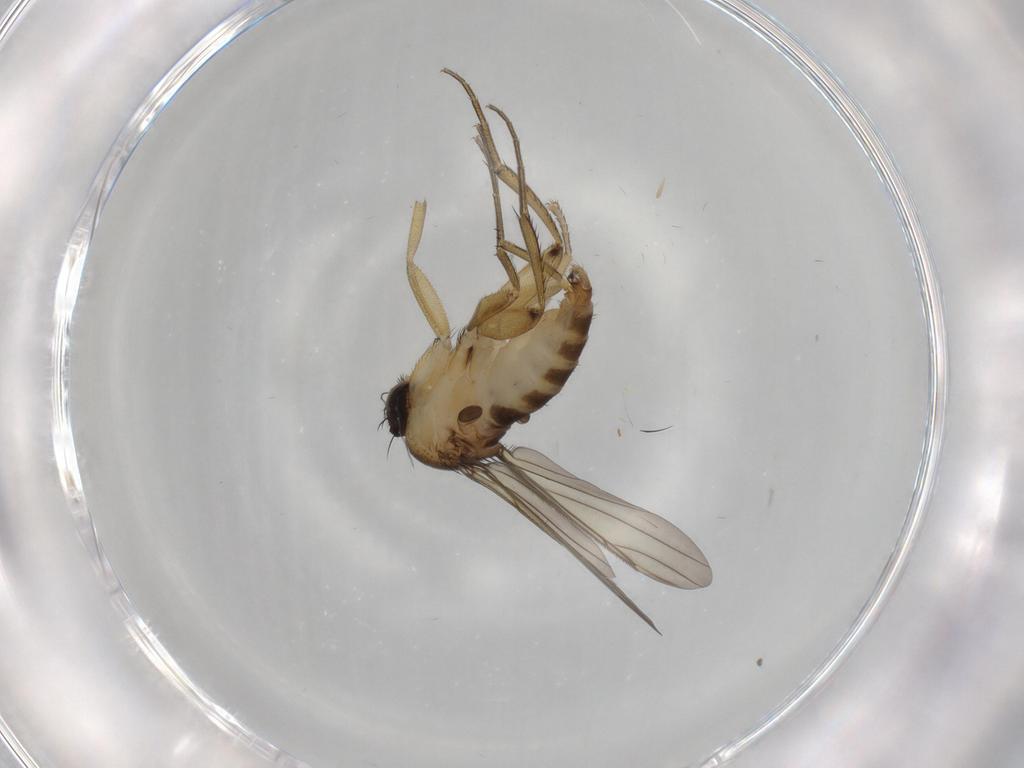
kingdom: Animalia
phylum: Arthropoda
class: Insecta
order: Diptera
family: Phoridae
